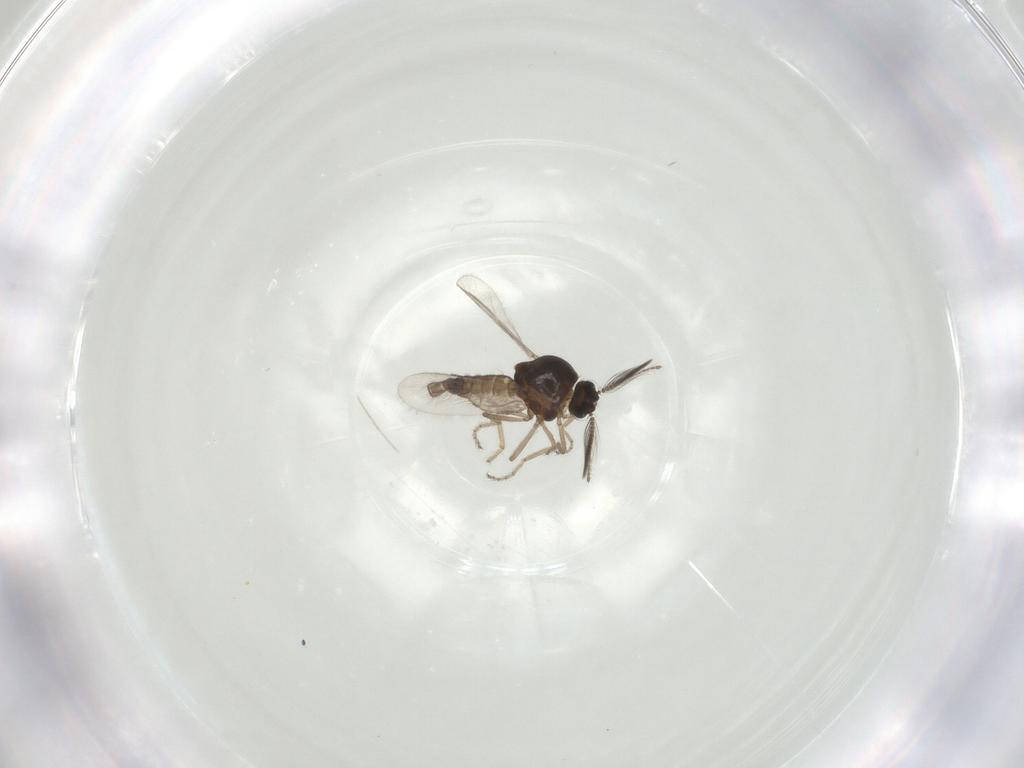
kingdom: Animalia
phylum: Arthropoda
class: Insecta
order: Diptera
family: Ceratopogonidae
